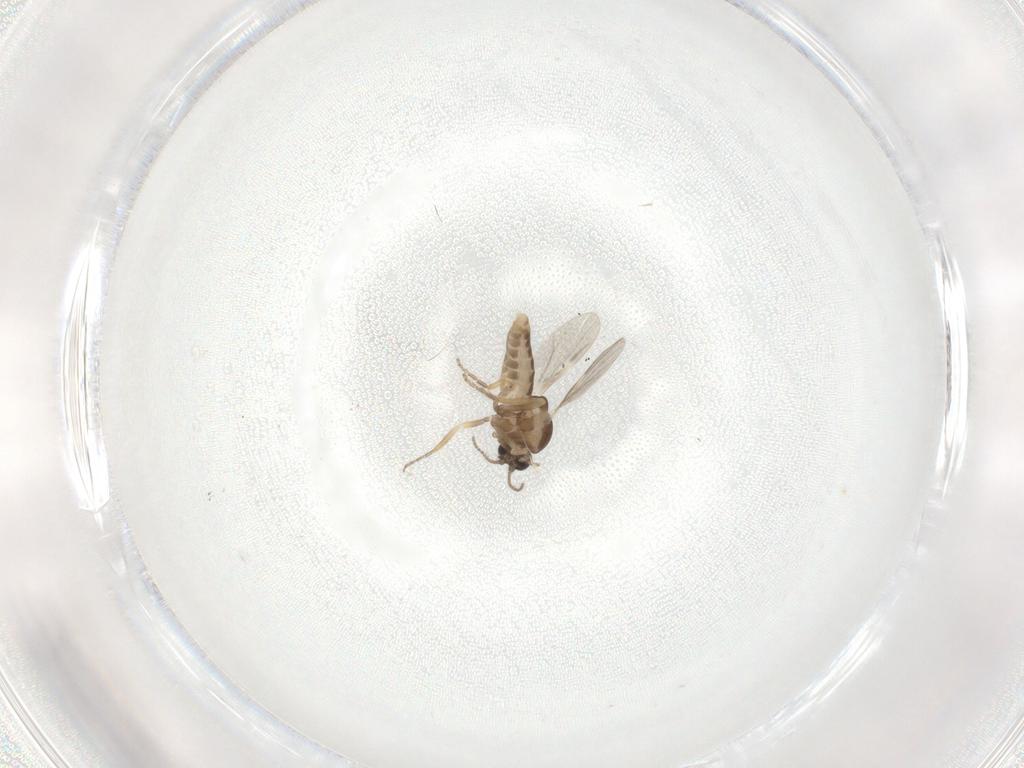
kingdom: Animalia
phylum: Arthropoda
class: Insecta
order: Diptera
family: Ceratopogonidae
